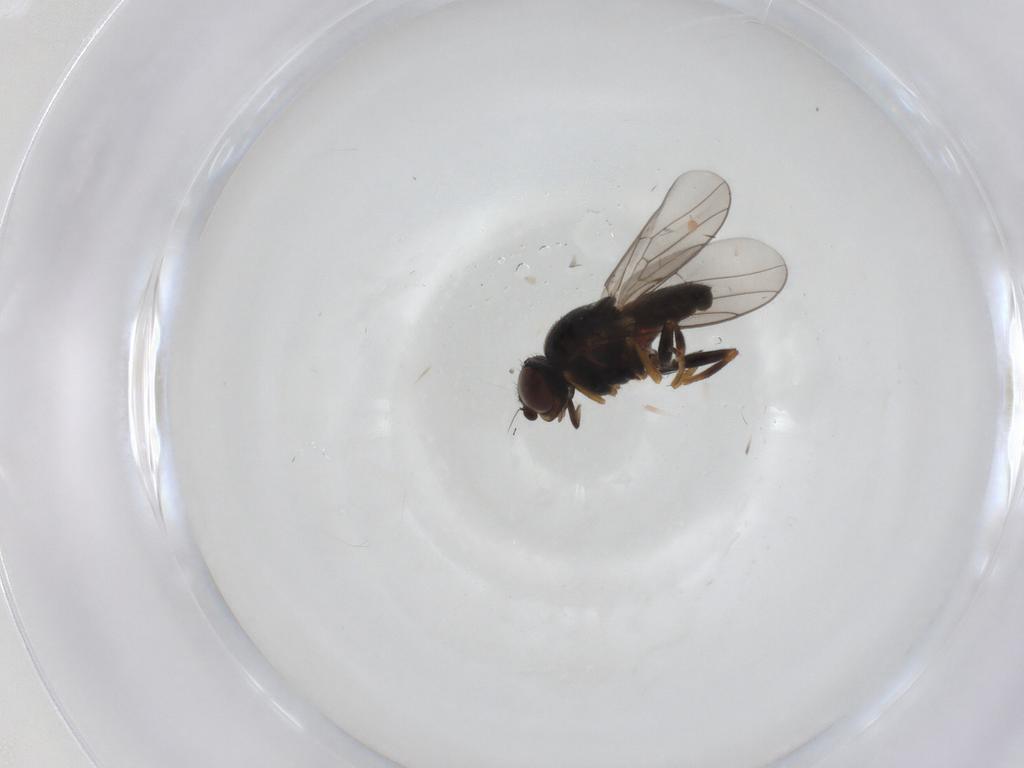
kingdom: Animalia
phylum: Arthropoda
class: Insecta
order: Diptera
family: Chloropidae
